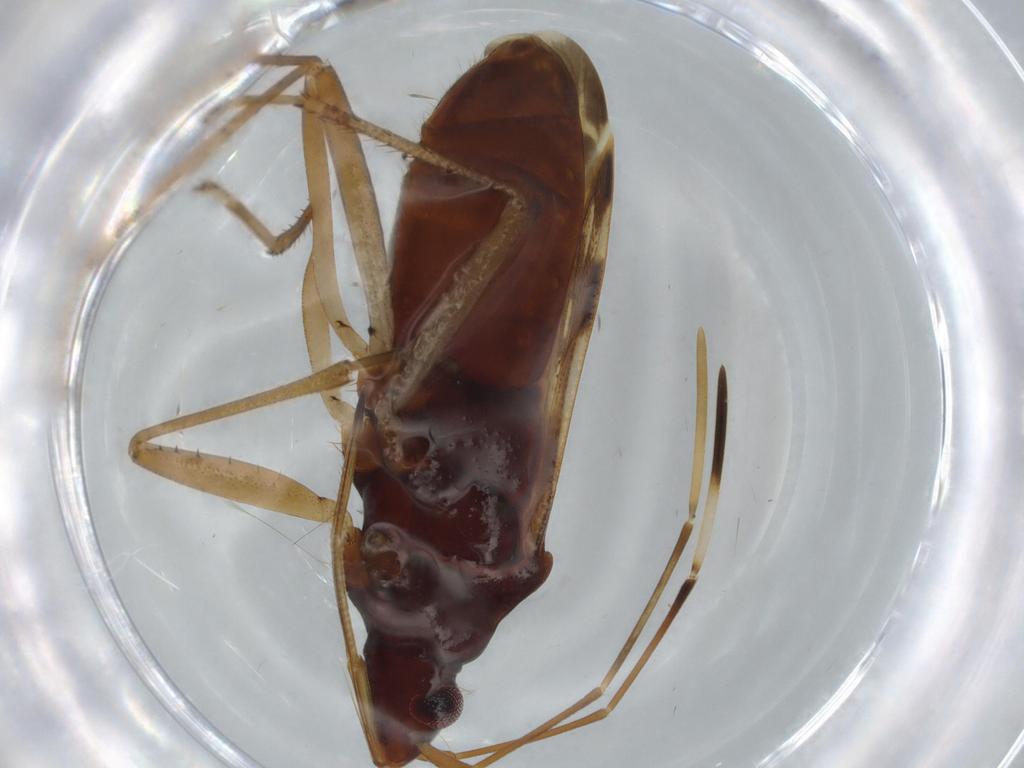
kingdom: Animalia
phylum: Arthropoda
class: Insecta
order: Hemiptera
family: Rhyparochromidae
